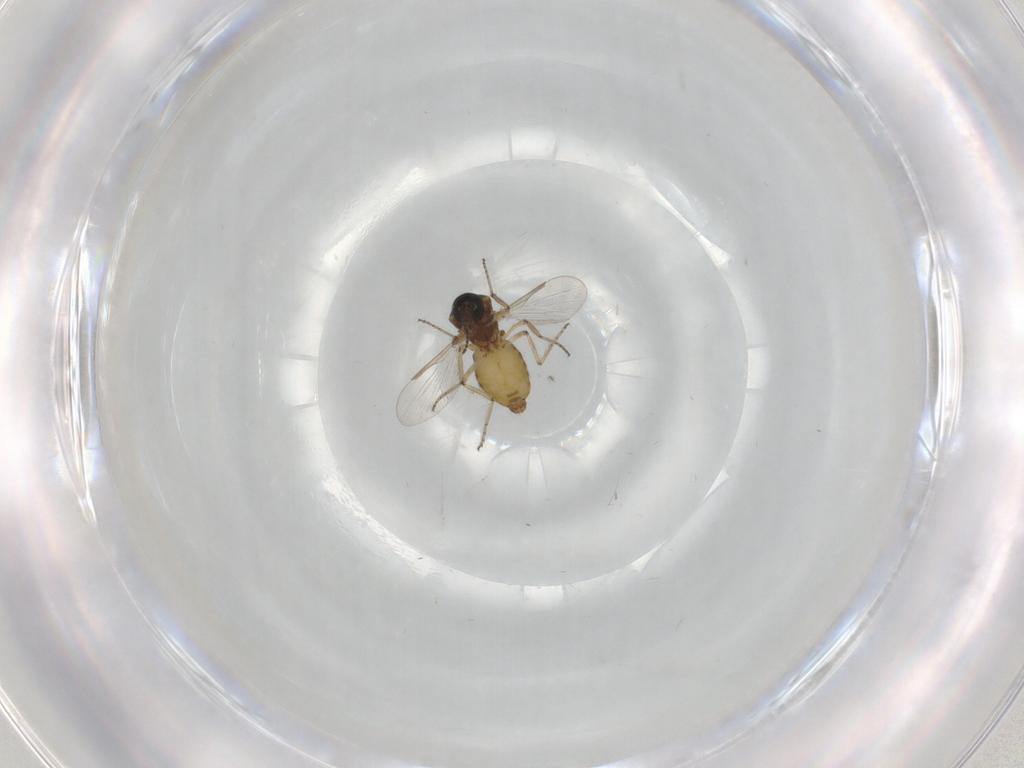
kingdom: Animalia
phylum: Arthropoda
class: Insecta
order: Diptera
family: Ceratopogonidae
